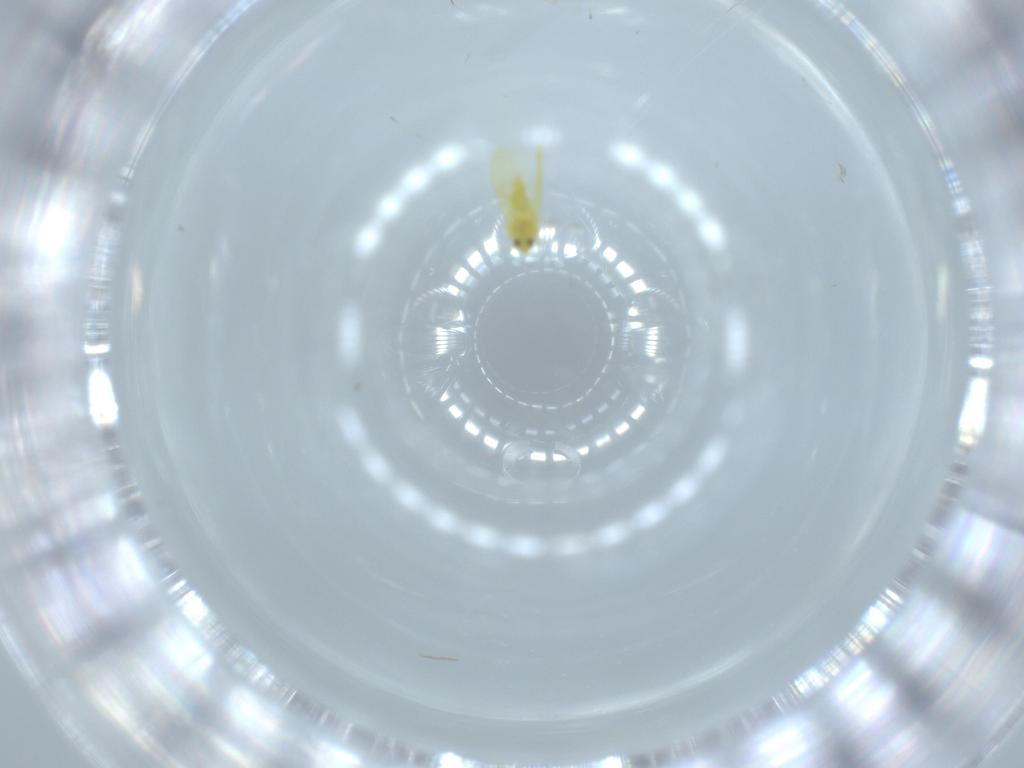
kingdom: Animalia
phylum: Arthropoda
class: Insecta
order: Hemiptera
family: Aleyrodidae
